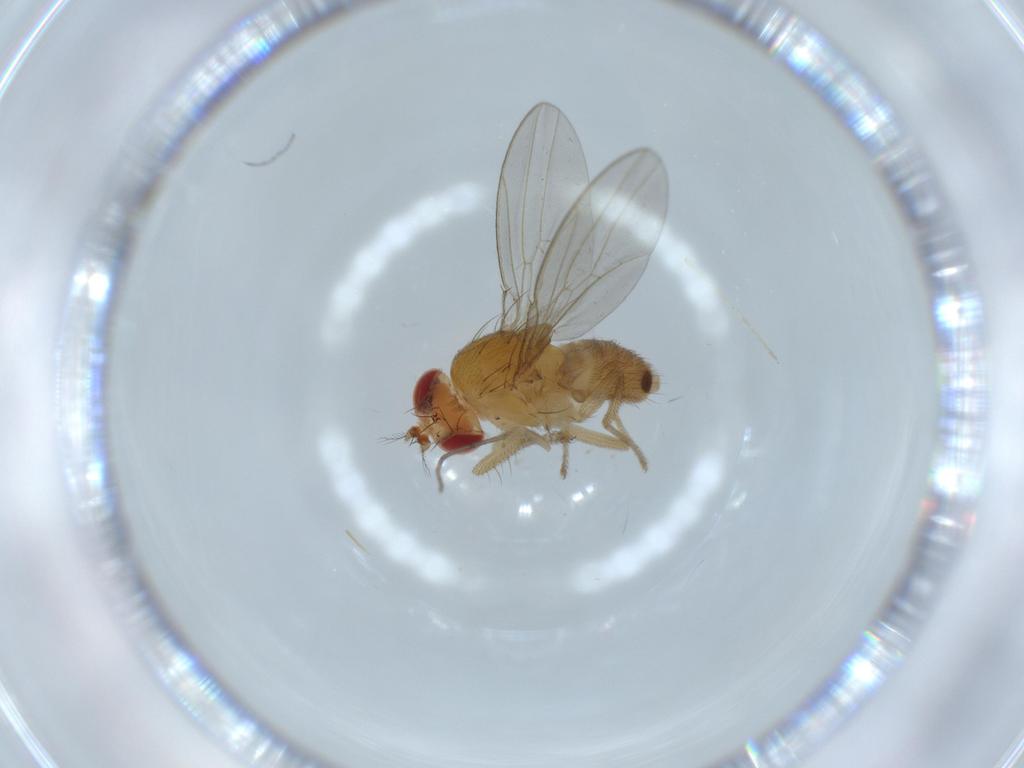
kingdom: Animalia
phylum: Arthropoda
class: Insecta
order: Diptera
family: Drosophilidae
